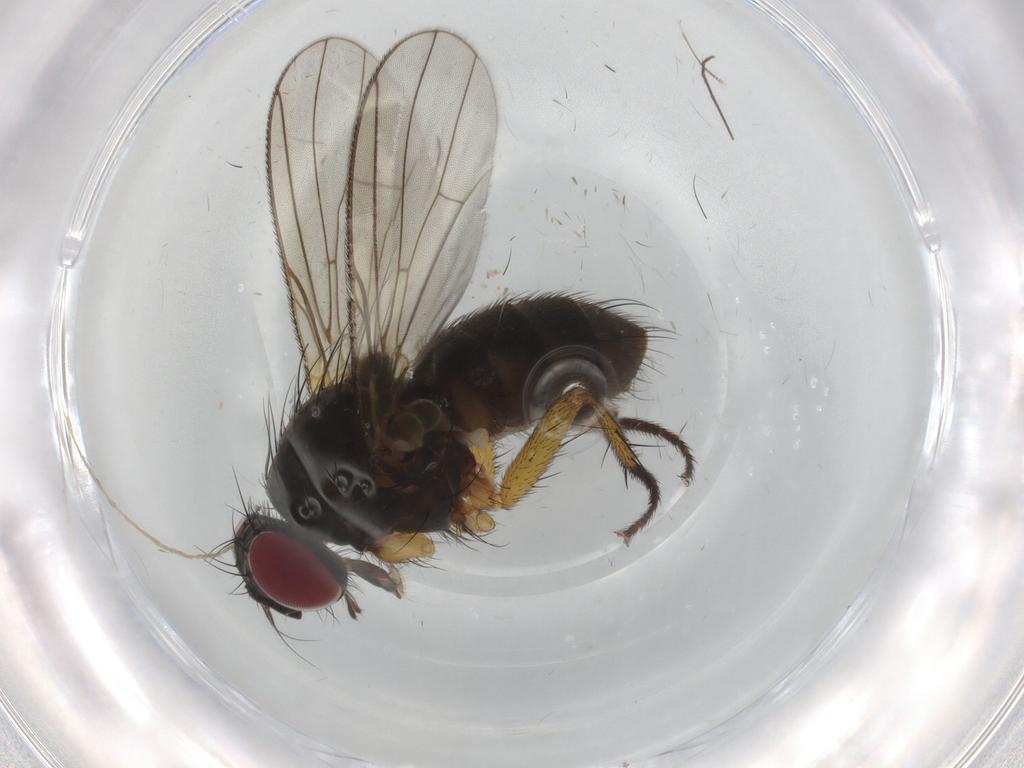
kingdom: Animalia
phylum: Arthropoda
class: Insecta
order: Diptera
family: Muscidae
